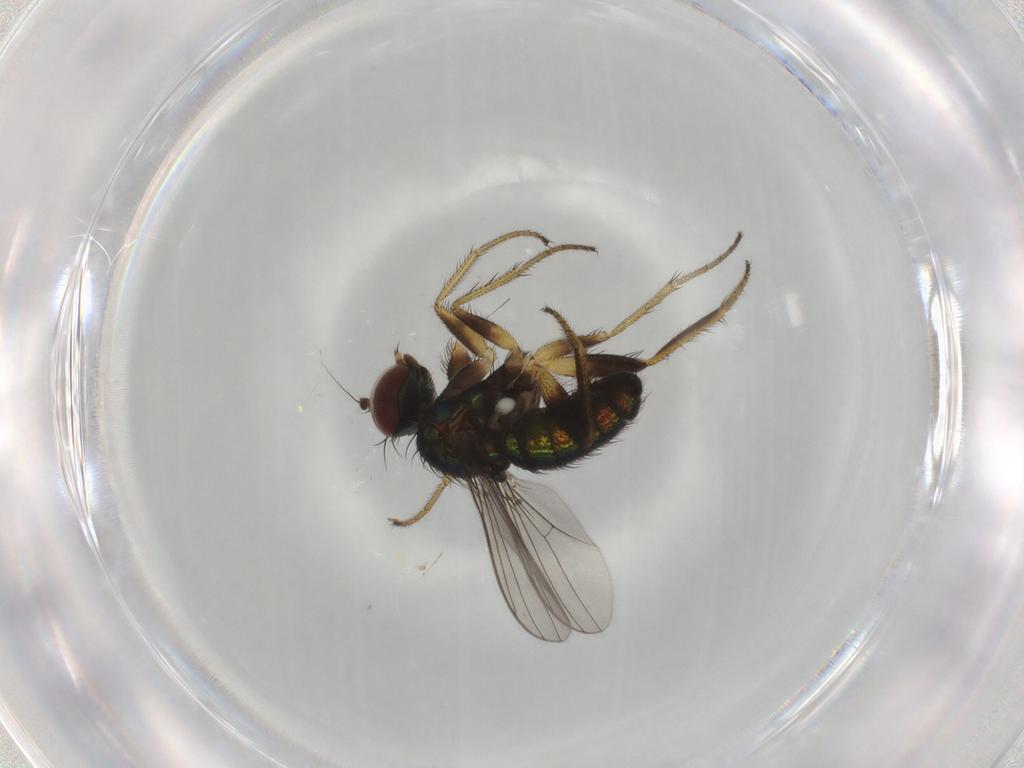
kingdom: Animalia
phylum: Arthropoda
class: Insecta
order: Diptera
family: Dolichopodidae
